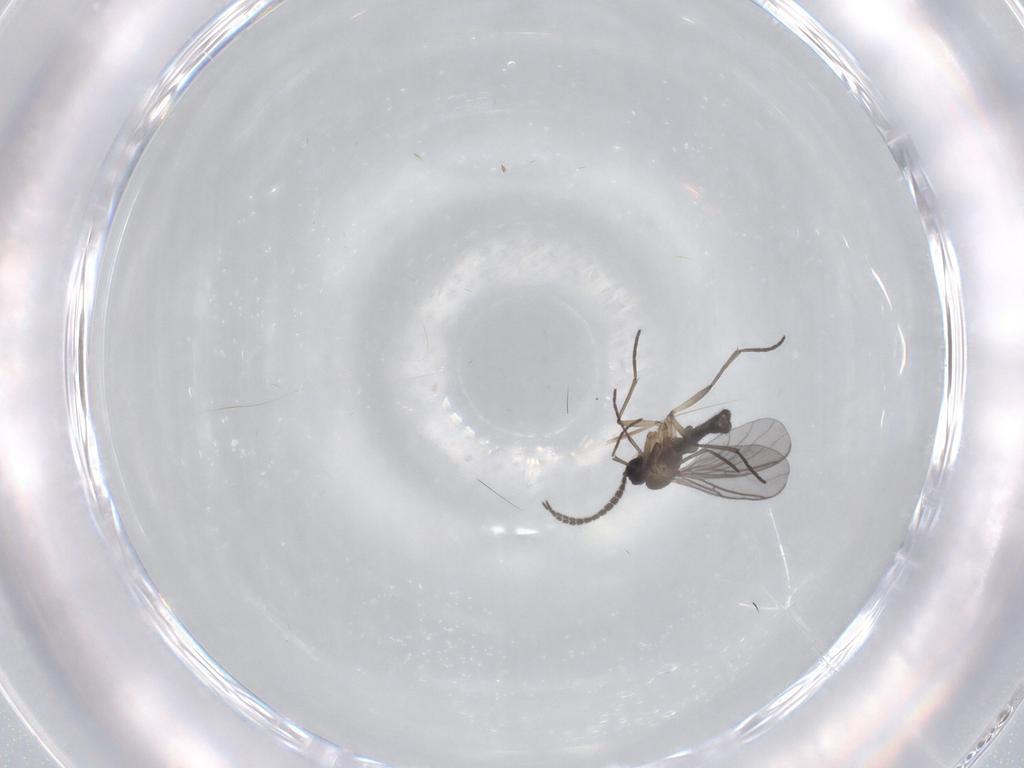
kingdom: Animalia
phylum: Arthropoda
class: Insecta
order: Diptera
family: Sciaridae
